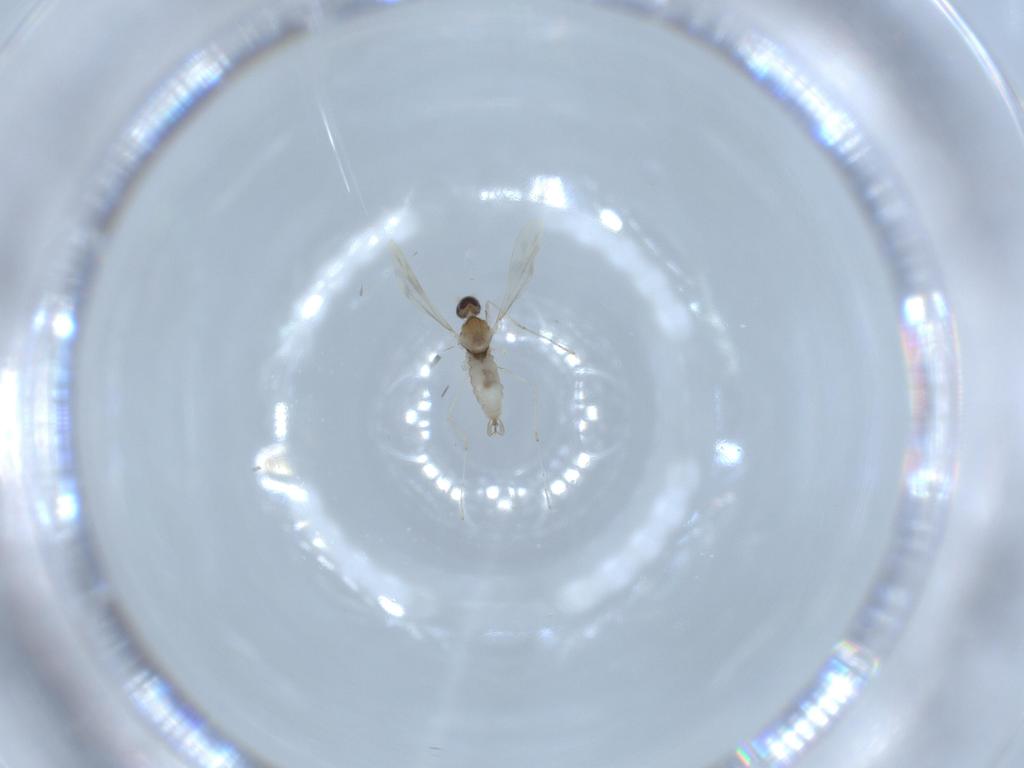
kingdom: Animalia
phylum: Arthropoda
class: Insecta
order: Diptera
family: Cecidomyiidae
